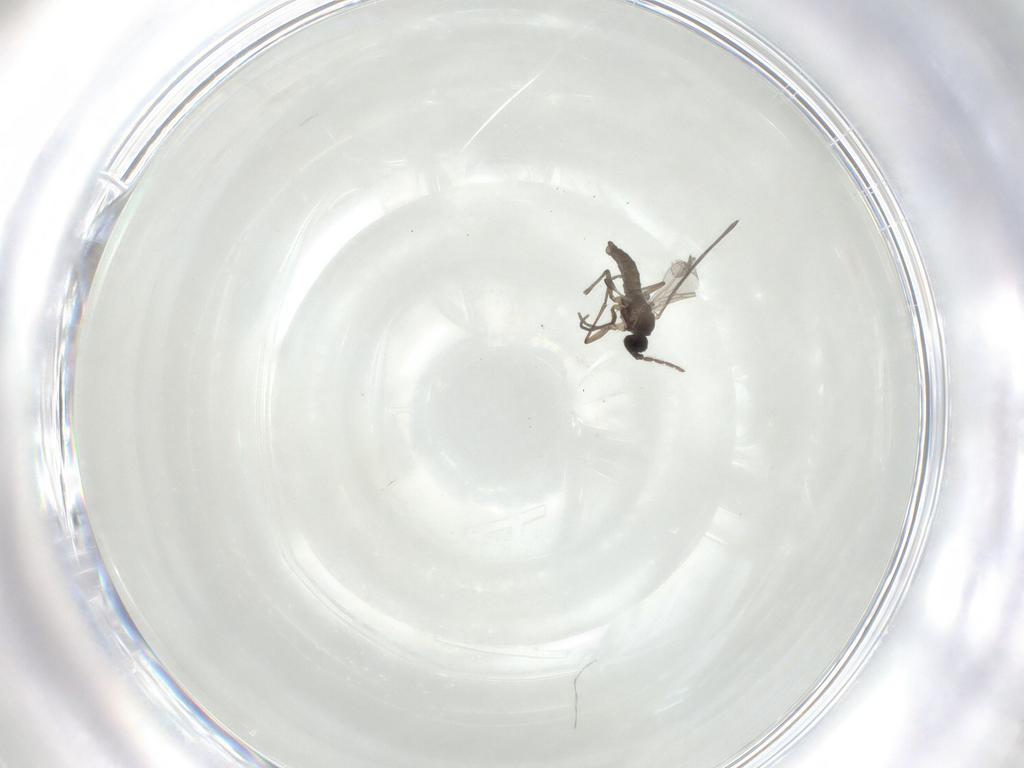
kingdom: Animalia
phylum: Arthropoda
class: Insecta
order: Diptera
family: Sciaridae
